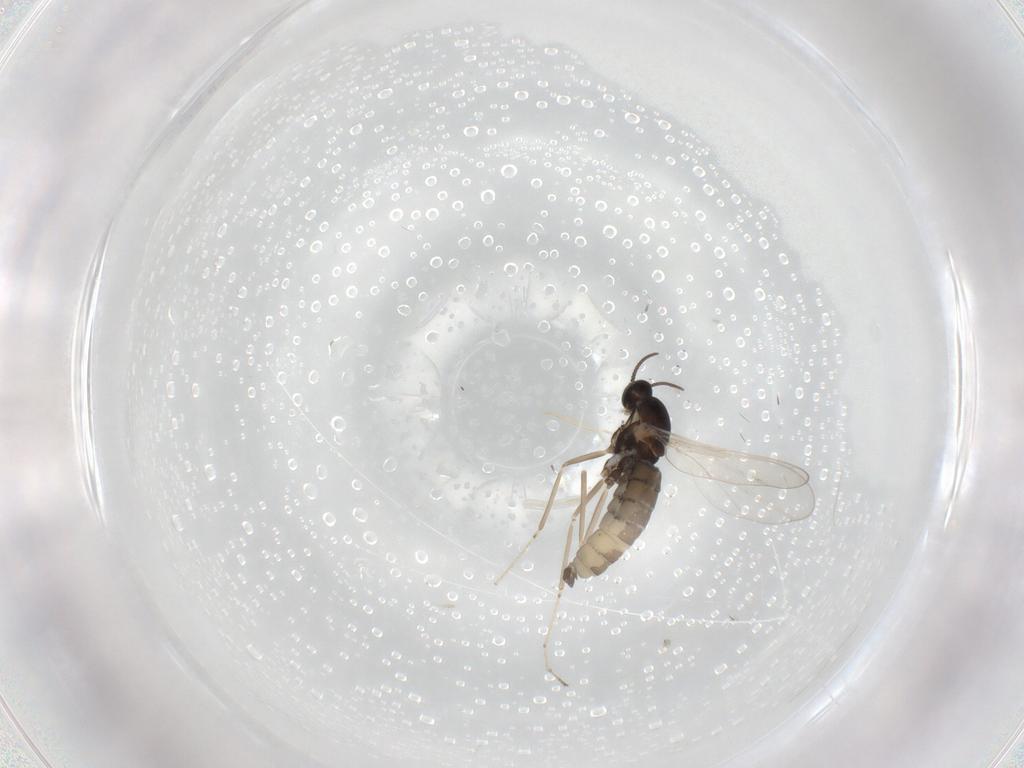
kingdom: Animalia
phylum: Arthropoda
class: Insecta
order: Diptera
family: Cecidomyiidae
